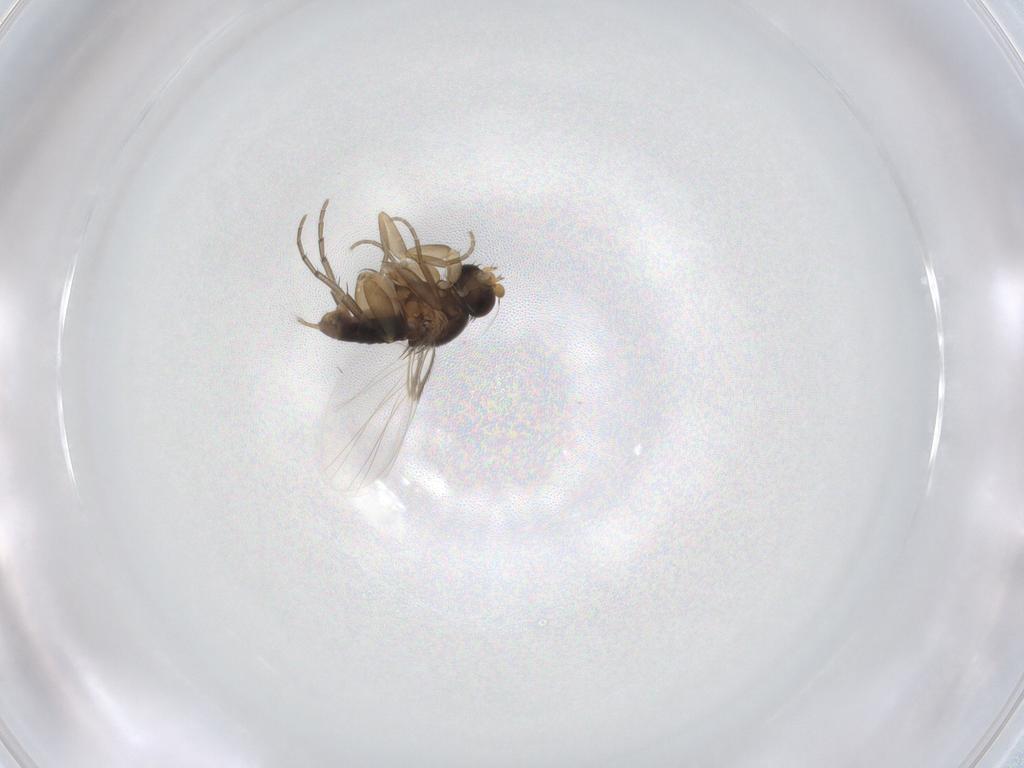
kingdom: Animalia
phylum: Arthropoda
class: Insecta
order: Diptera
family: Phoridae
